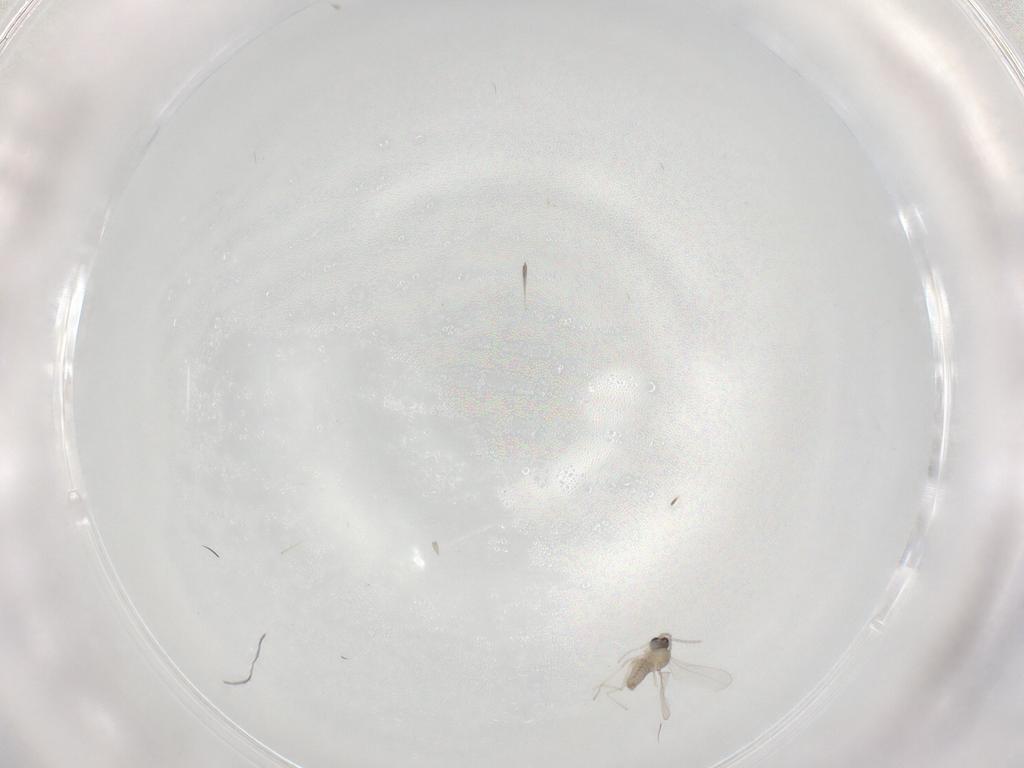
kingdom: Animalia
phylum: Arthropoda
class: Insecta
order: Diptera
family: Cecidomyiidae
